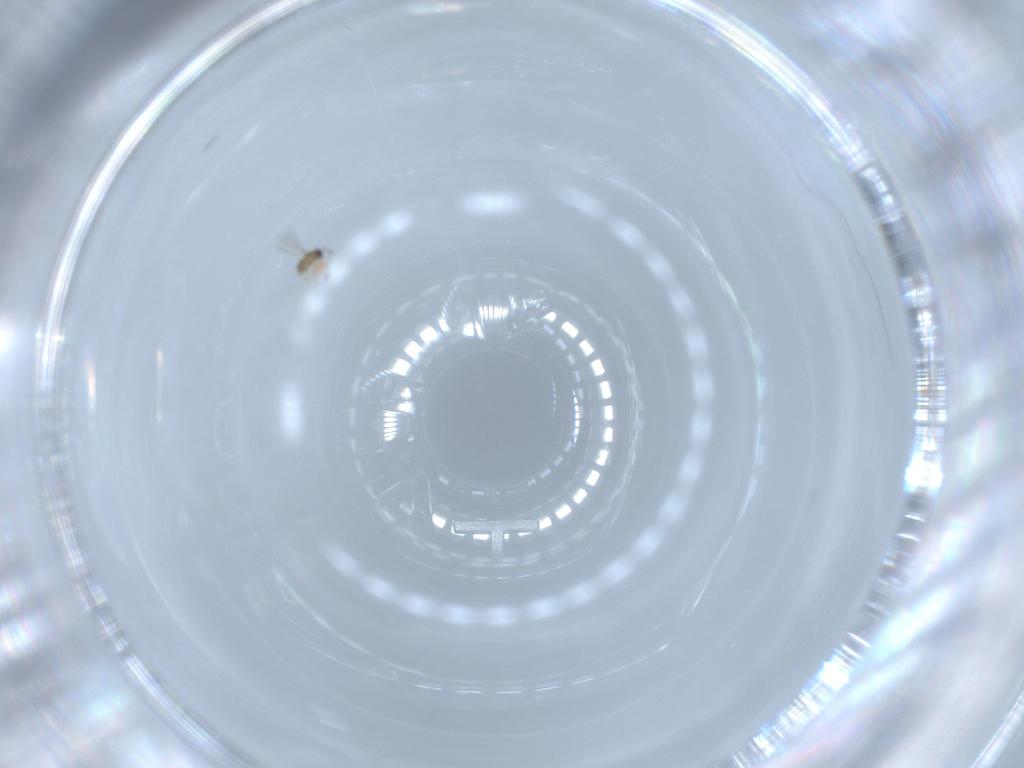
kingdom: Animalia
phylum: Arthropoda
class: Insecta
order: Hymenoptera
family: Mymaridae
